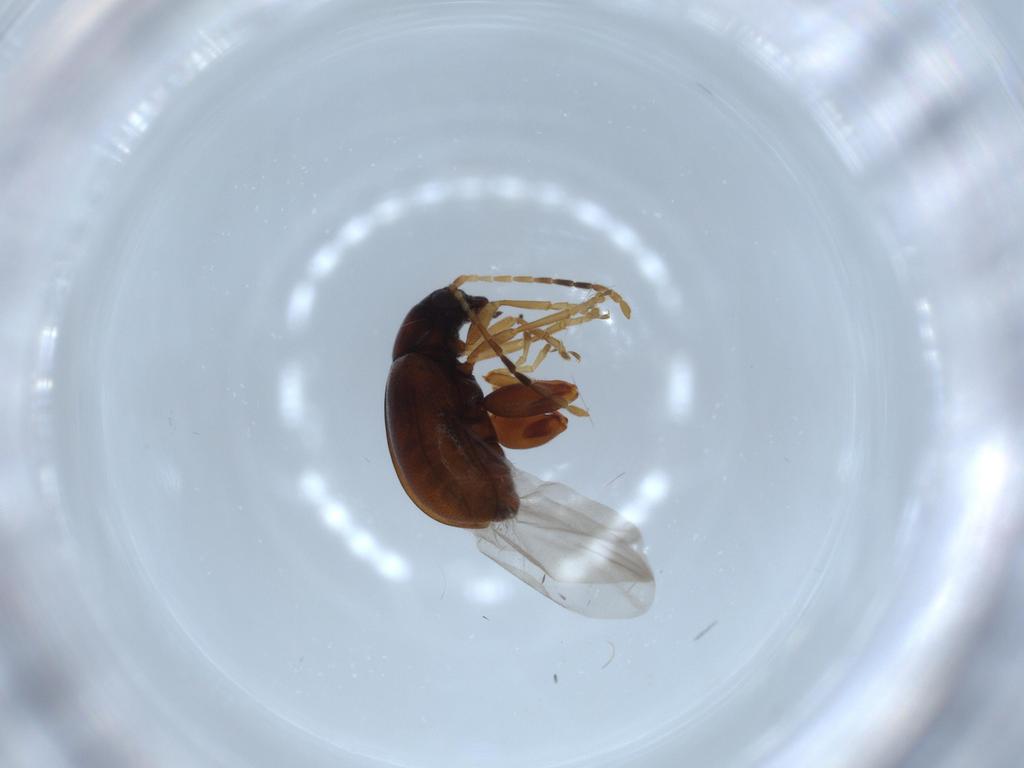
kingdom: Animalia
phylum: Arthropoda
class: Insecta
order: Coleoptera
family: Chrysomelidae
